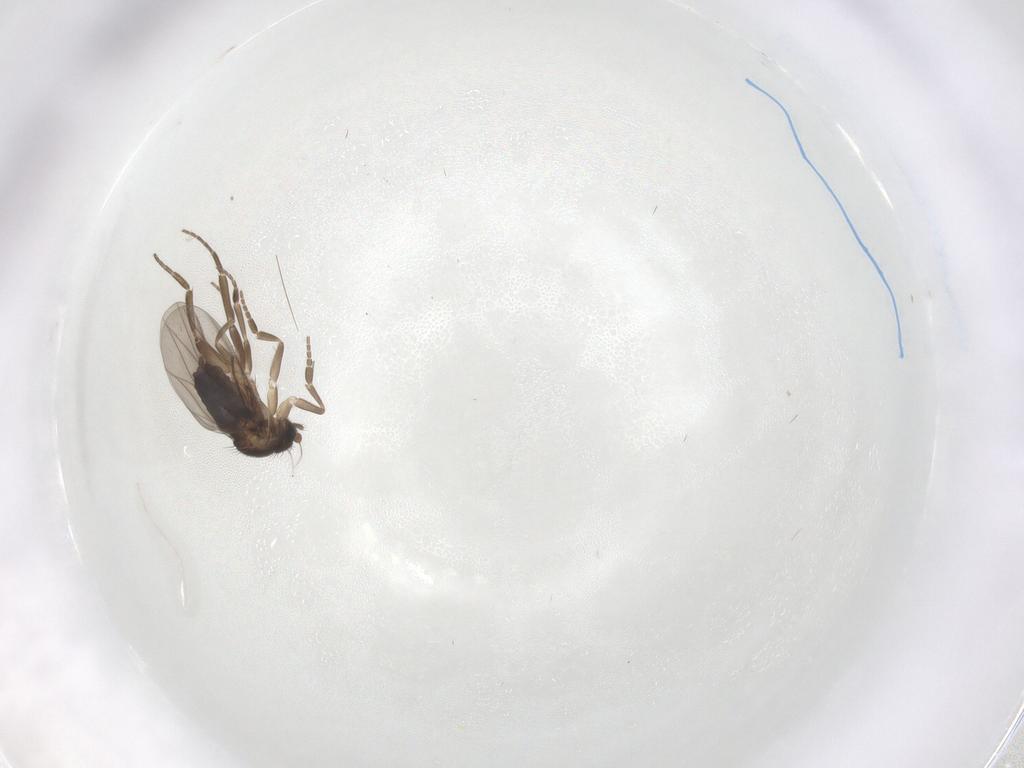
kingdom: Animalia
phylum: Arthropoda
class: Insecta
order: Diptera
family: Phoridae
